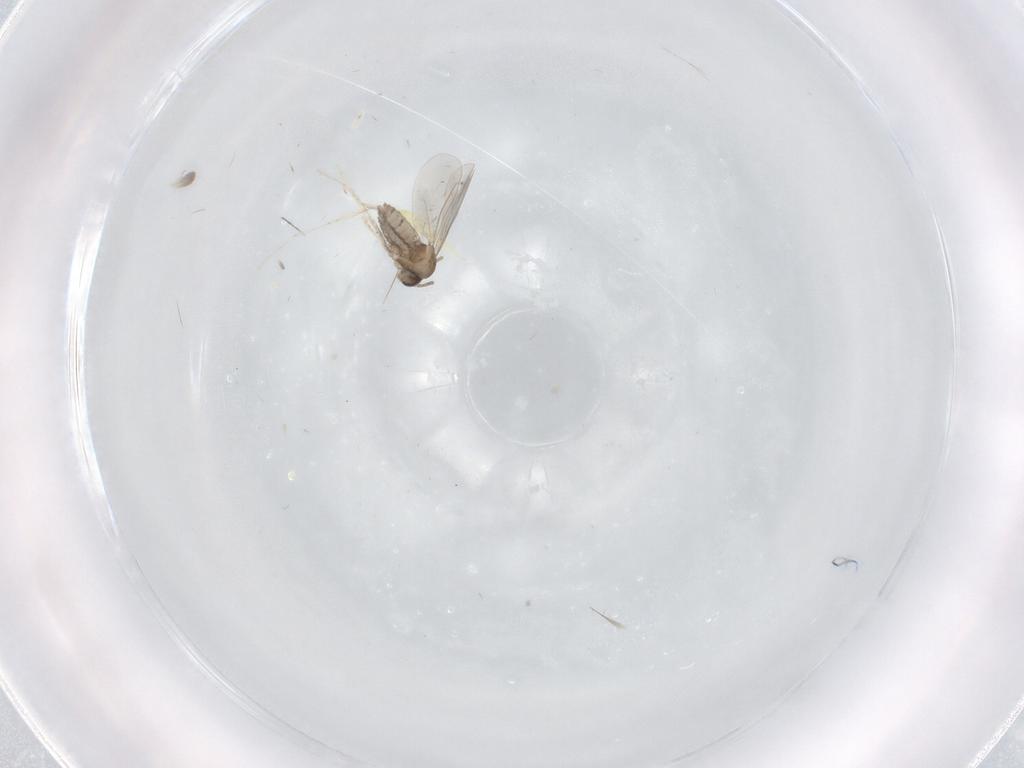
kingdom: Animalia
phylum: Arthropoda
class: Insecta
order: Diptera
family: Cecidomyiidae
